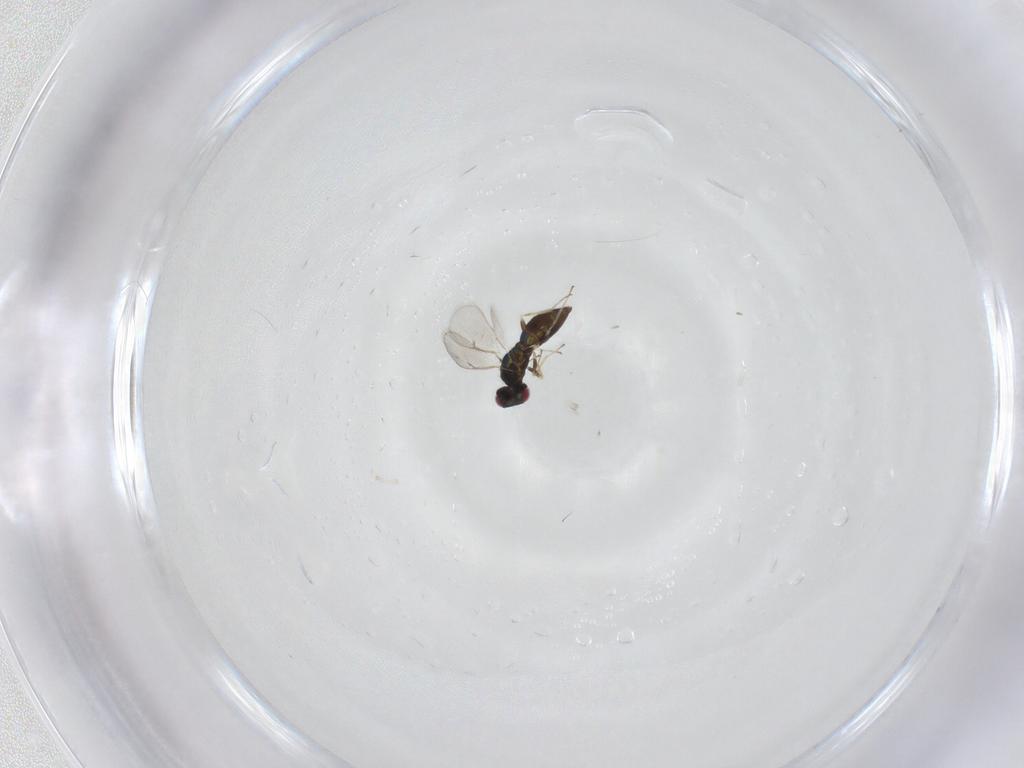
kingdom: Animalia
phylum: Arthropoda
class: Insecta
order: Hymenoptera
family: Eulophidae
